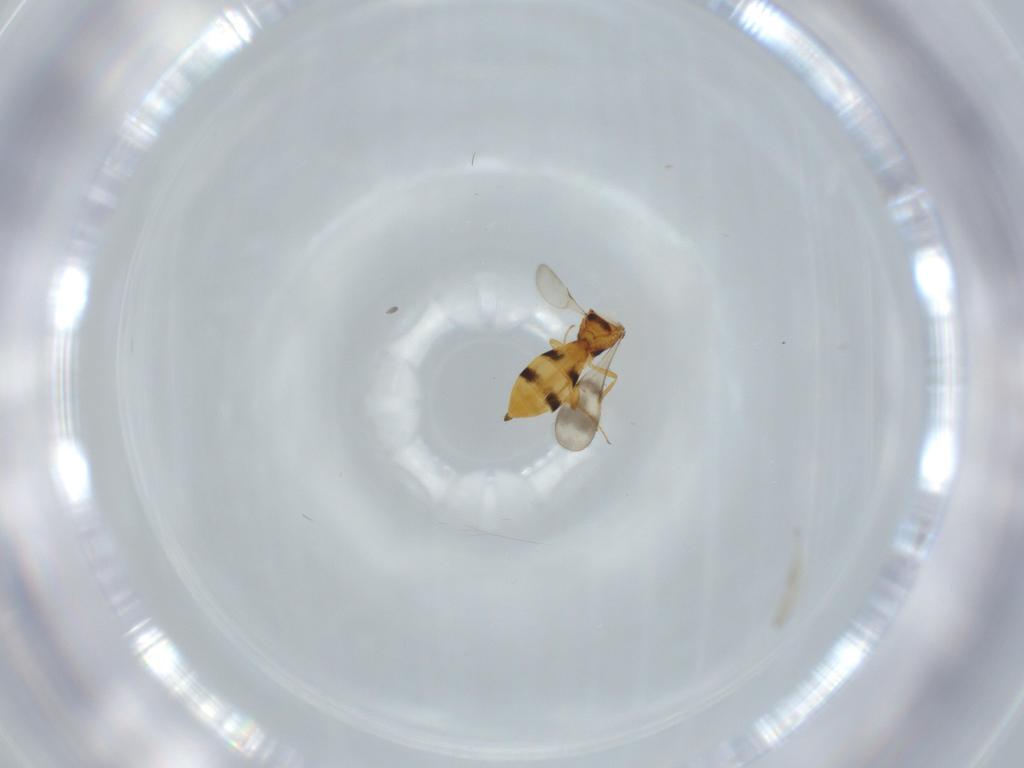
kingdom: Animalia
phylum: Arthropoda
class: Insecta
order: Hymenoptera
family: Scelionidae
